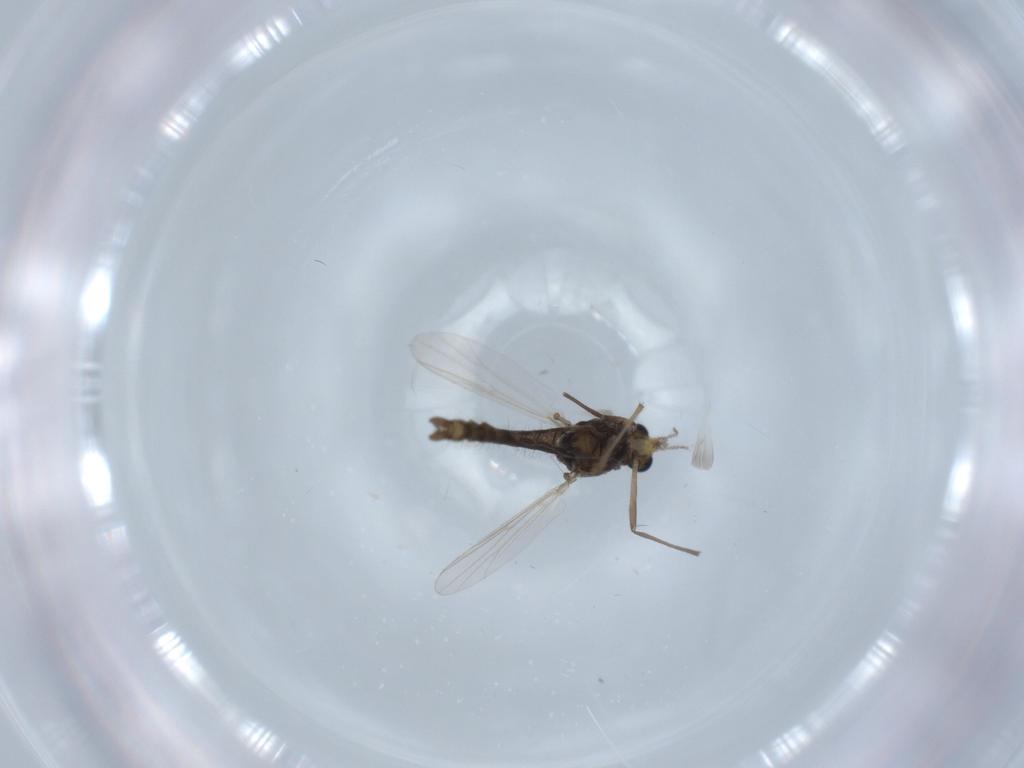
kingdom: Animalia
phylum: Arthropoda
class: Insecta
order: Diptera
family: Chironomidae
